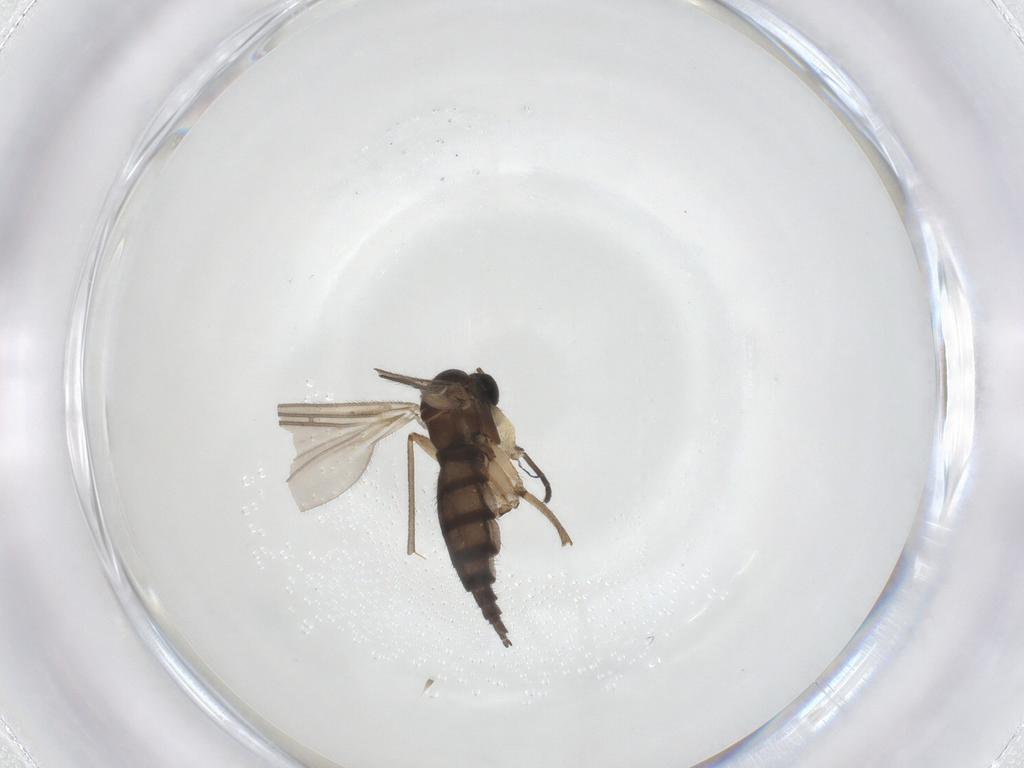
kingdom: Animalia
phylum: Arthropoda
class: Insecta
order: Diptera
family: Sciaridae
